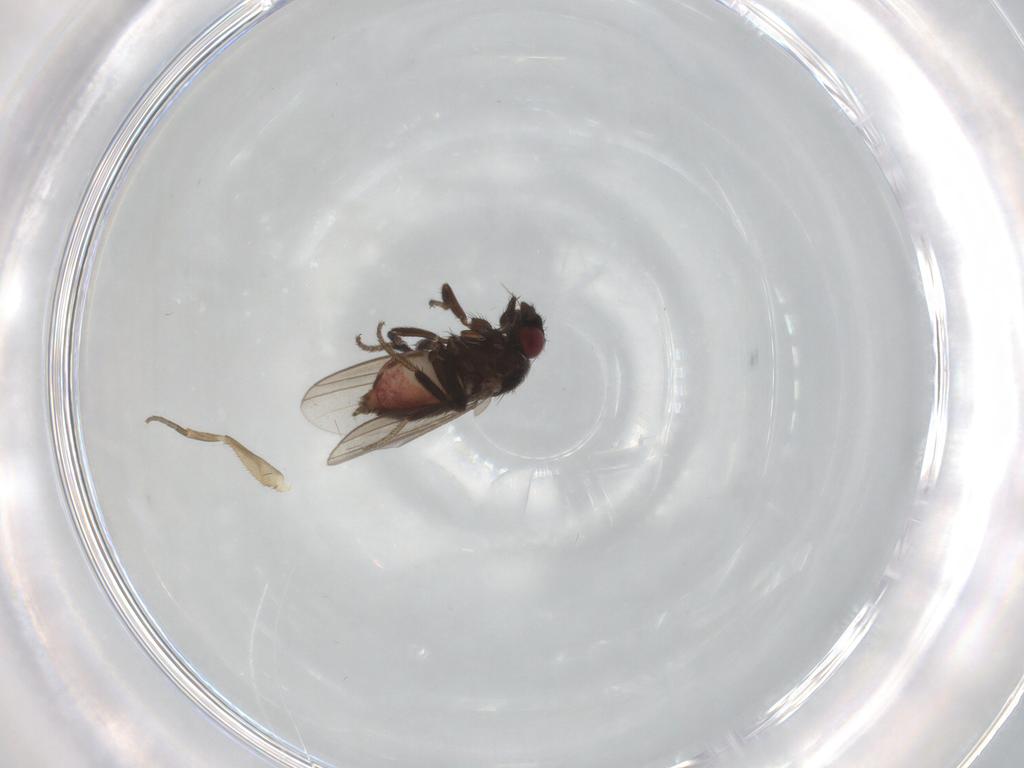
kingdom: Animalia
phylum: Arthropoda
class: Insecta
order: Diptera
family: Milichiidae
